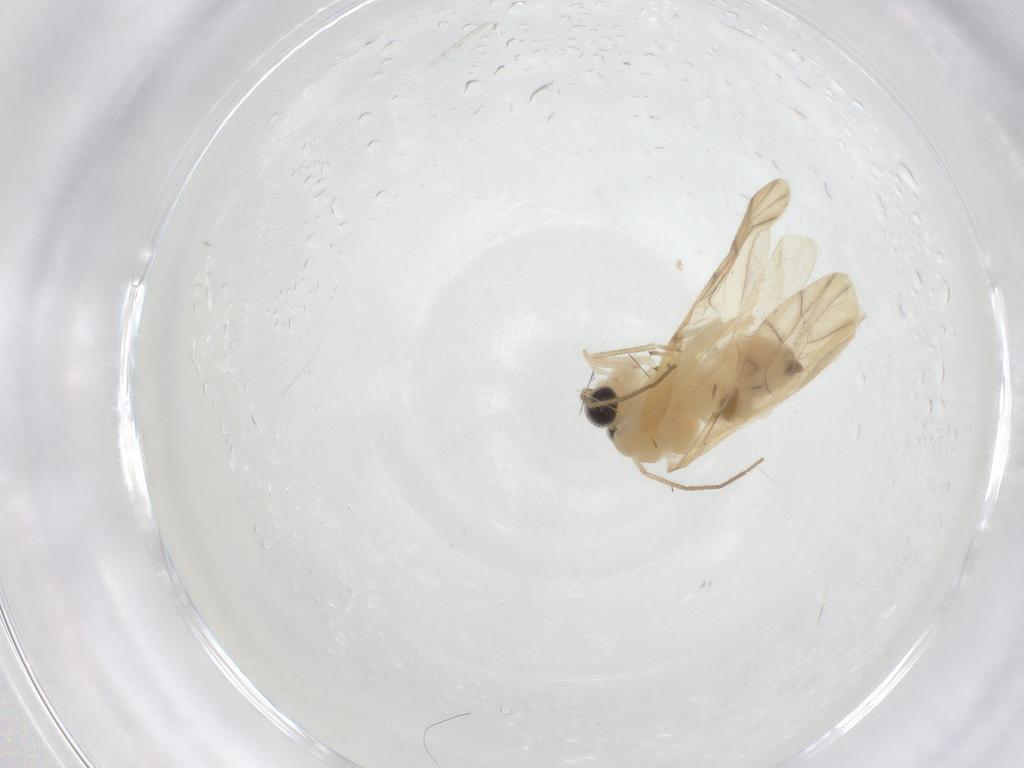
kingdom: Animalia
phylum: Arthropoda
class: Insecta
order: Psocodea
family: Caeciliusidae
